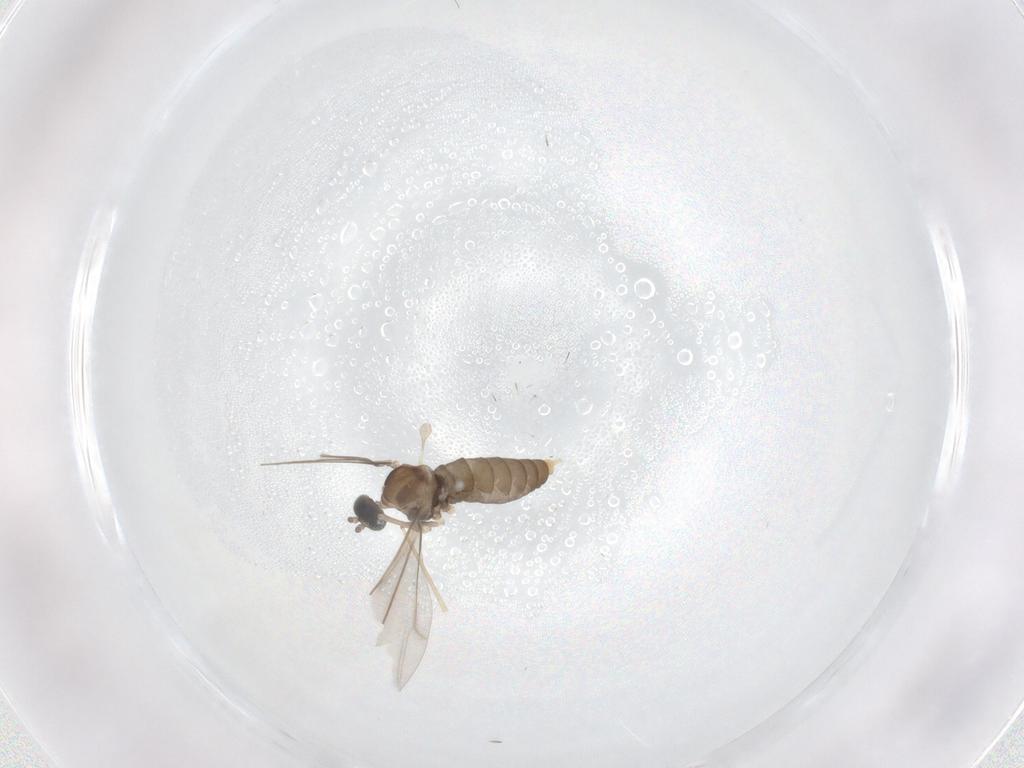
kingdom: Animalia
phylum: Arthropoda
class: Insecta
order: Diptera
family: Cecidomyiidae
